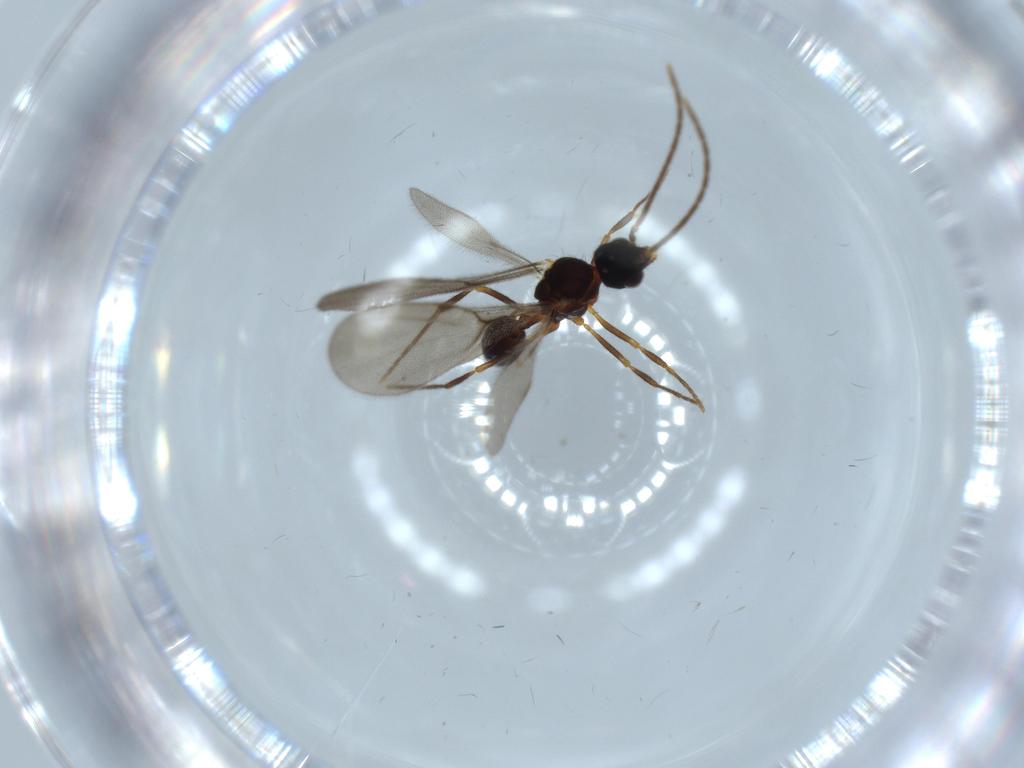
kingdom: Animalia
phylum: Arthropoda
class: Insecta
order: Hymenoptera
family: Formicidae
